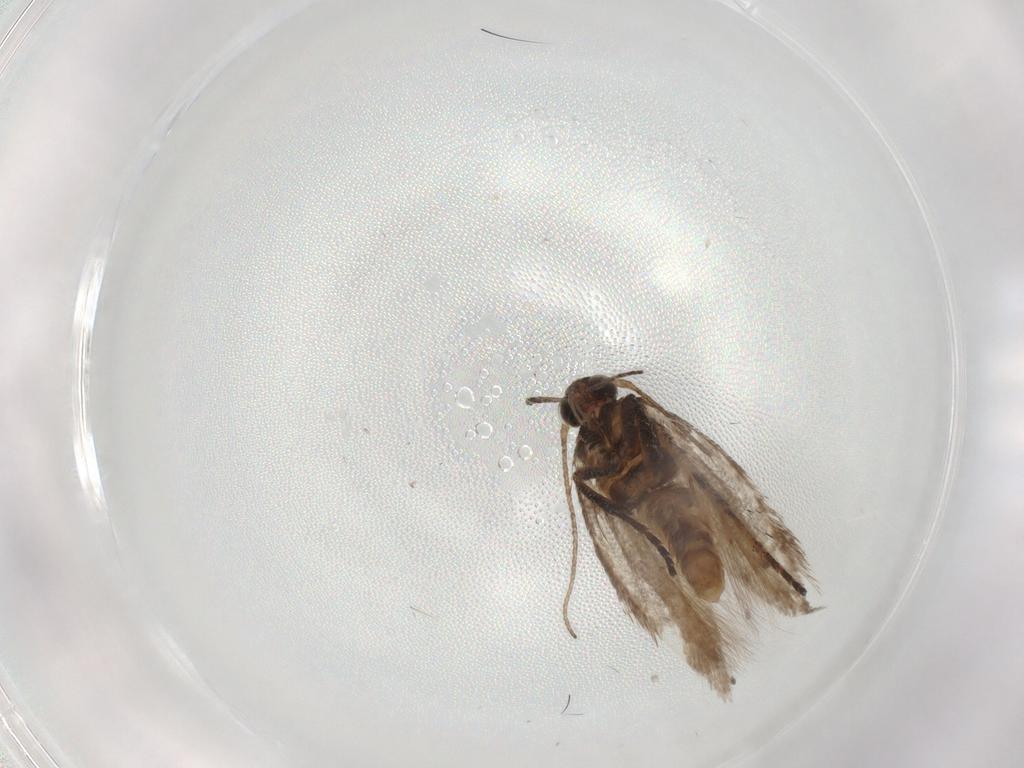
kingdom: Animalia
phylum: Arthropoda
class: Insecta
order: Lepidoptera
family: Gelechiidae
